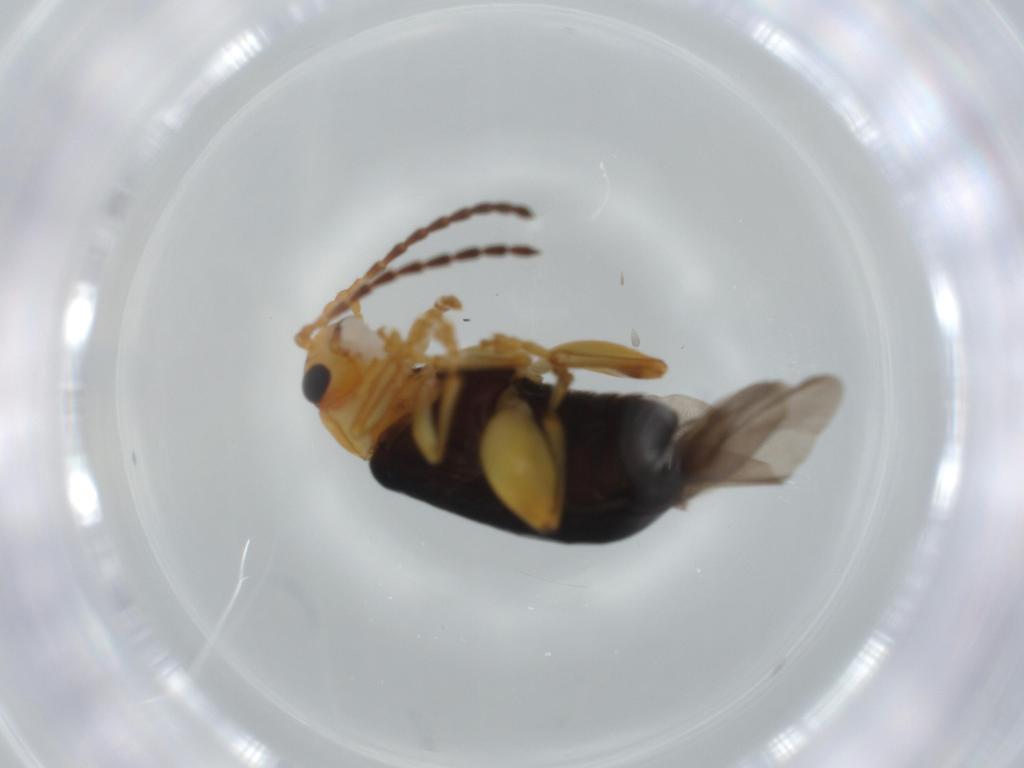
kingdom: Animalia
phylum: Arthropoda
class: Insecta
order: Coleoptera
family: Chrysomelidae
